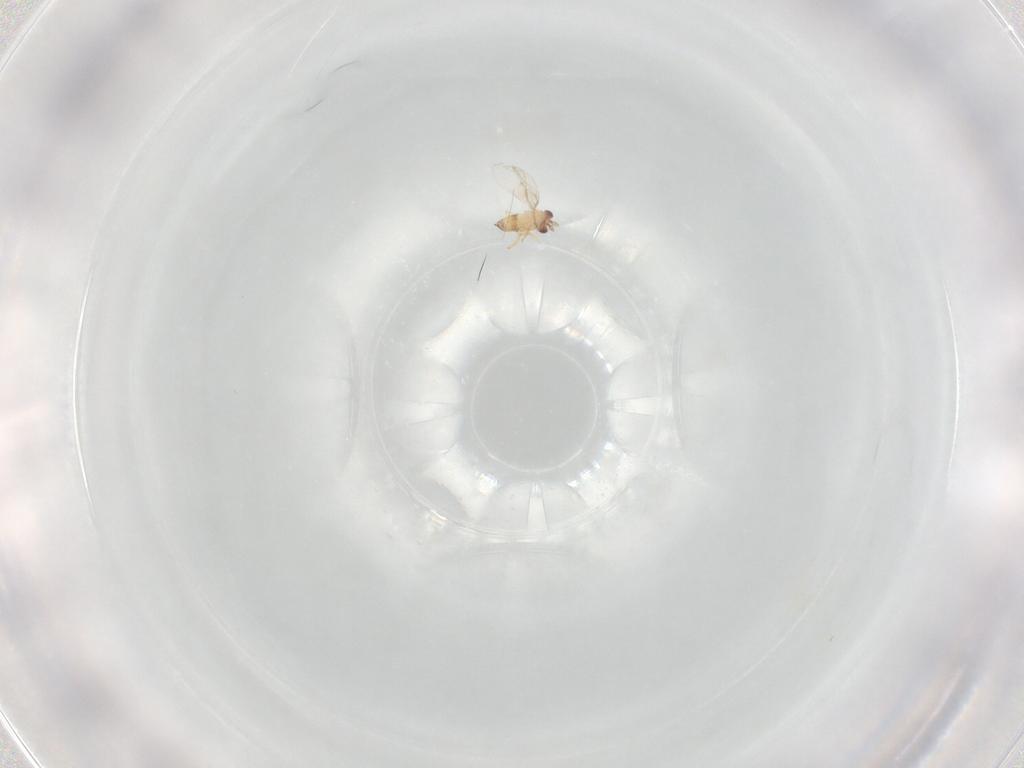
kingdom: Animalia
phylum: Arthropoda
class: Insecta
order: Hymenoptera
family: Trichogrammatidae
